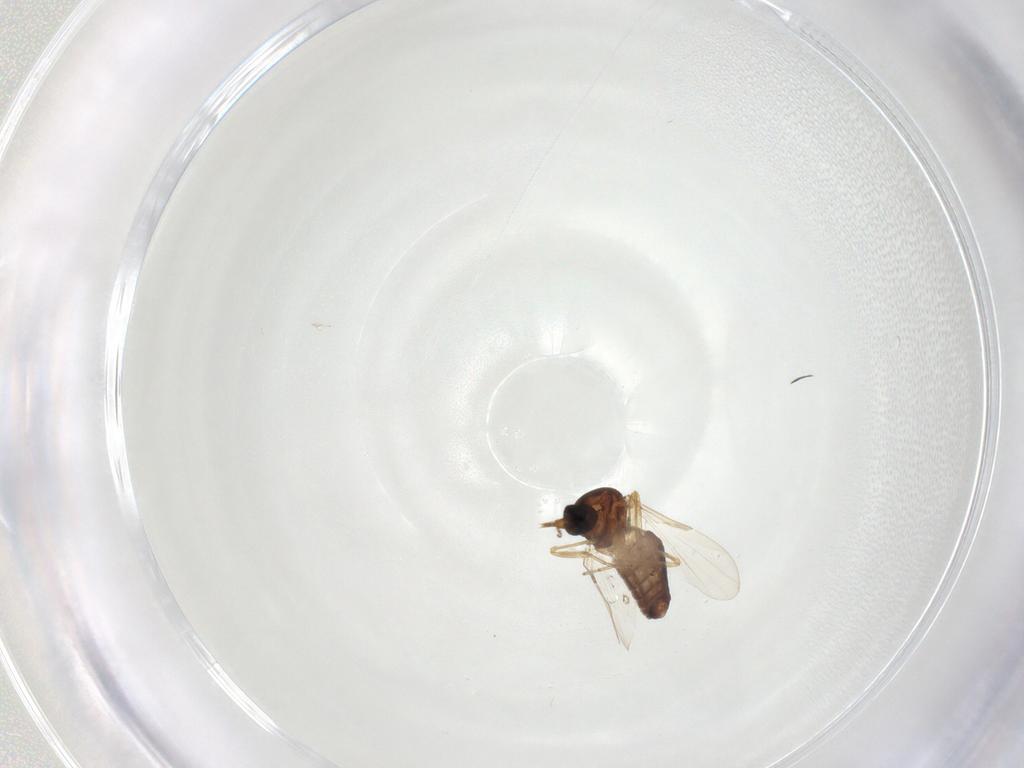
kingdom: Animalia
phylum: Arthropoda
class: Insecta
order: Diptera
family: Ceratopogonidae
